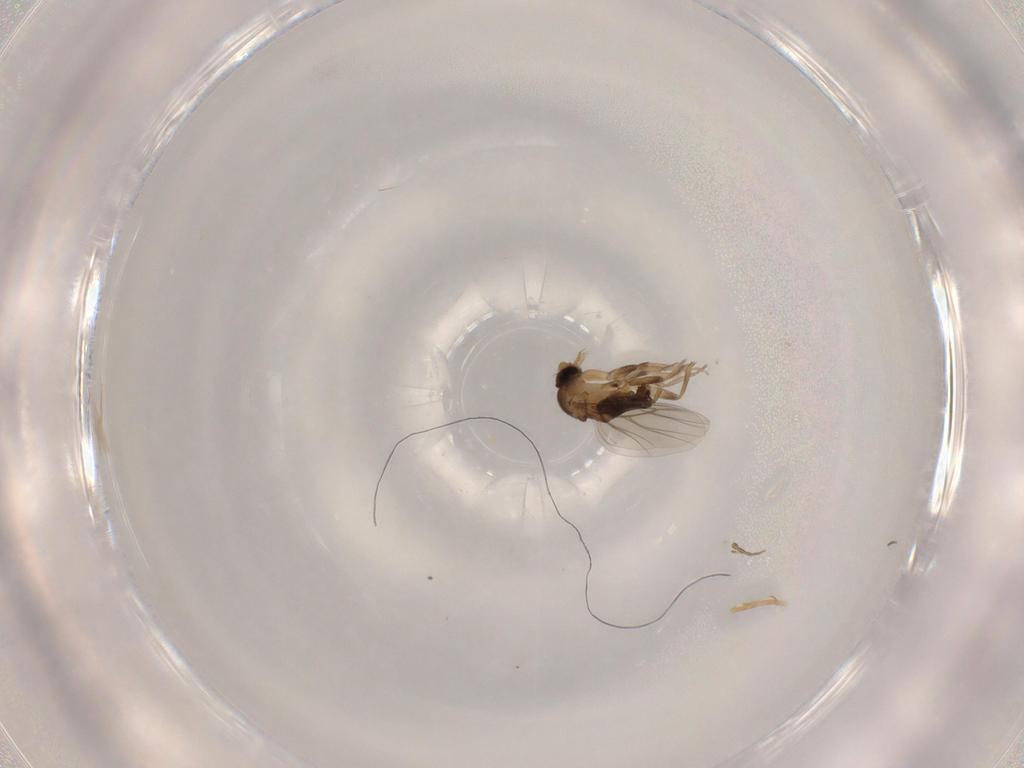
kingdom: Animalia
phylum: Arthropoda
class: Insecta
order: Diptera
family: Phoridae
